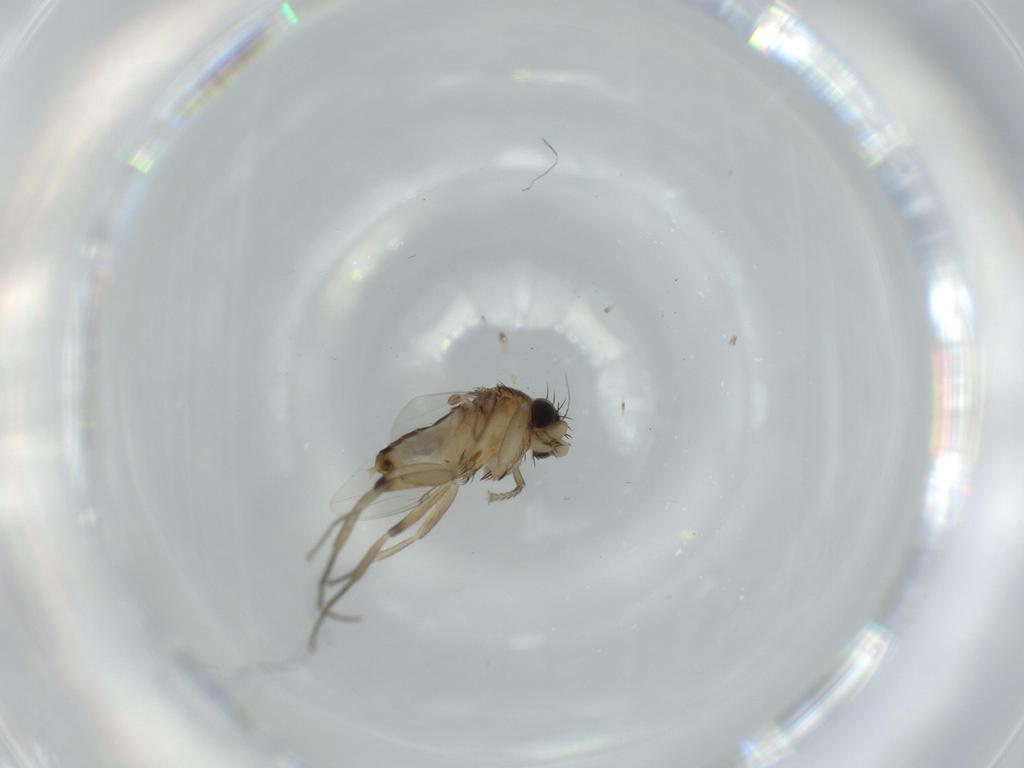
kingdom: Animalia
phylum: Arthropoda
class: Insecta
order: Diptera
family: Phoridae
